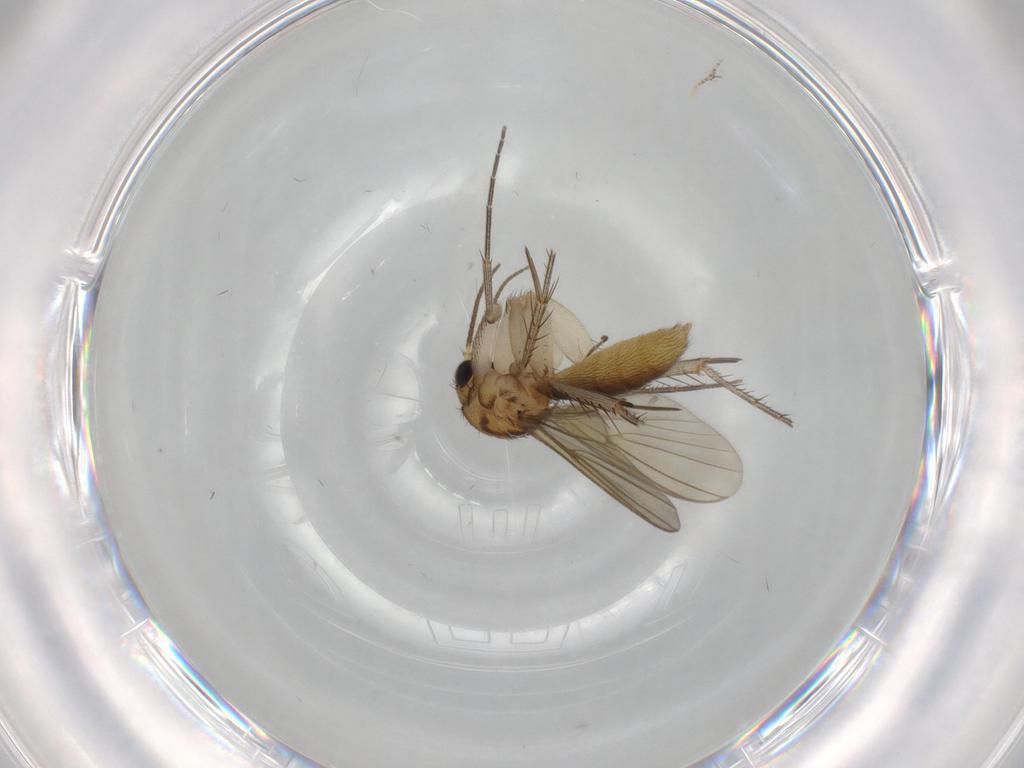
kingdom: Animalia
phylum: Arthropoda
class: Insecta
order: Diptera
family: Mycetophilidae
